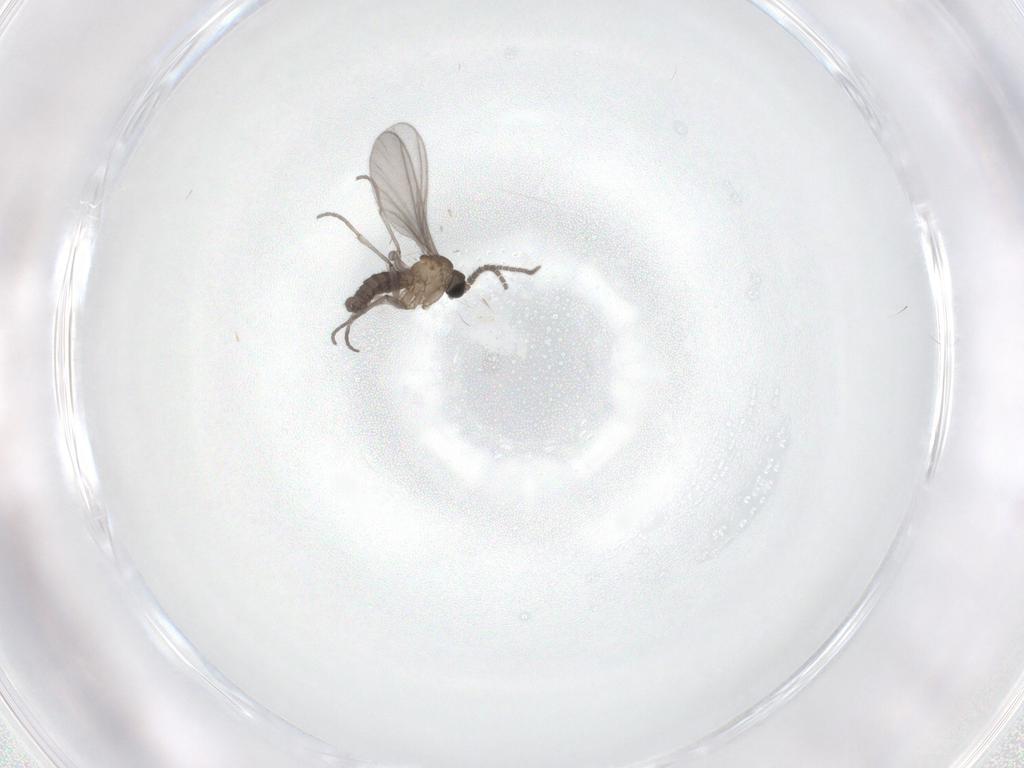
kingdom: Animalia
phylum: Arthropoda
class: Insecta
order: Diptera
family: Sciaridae
